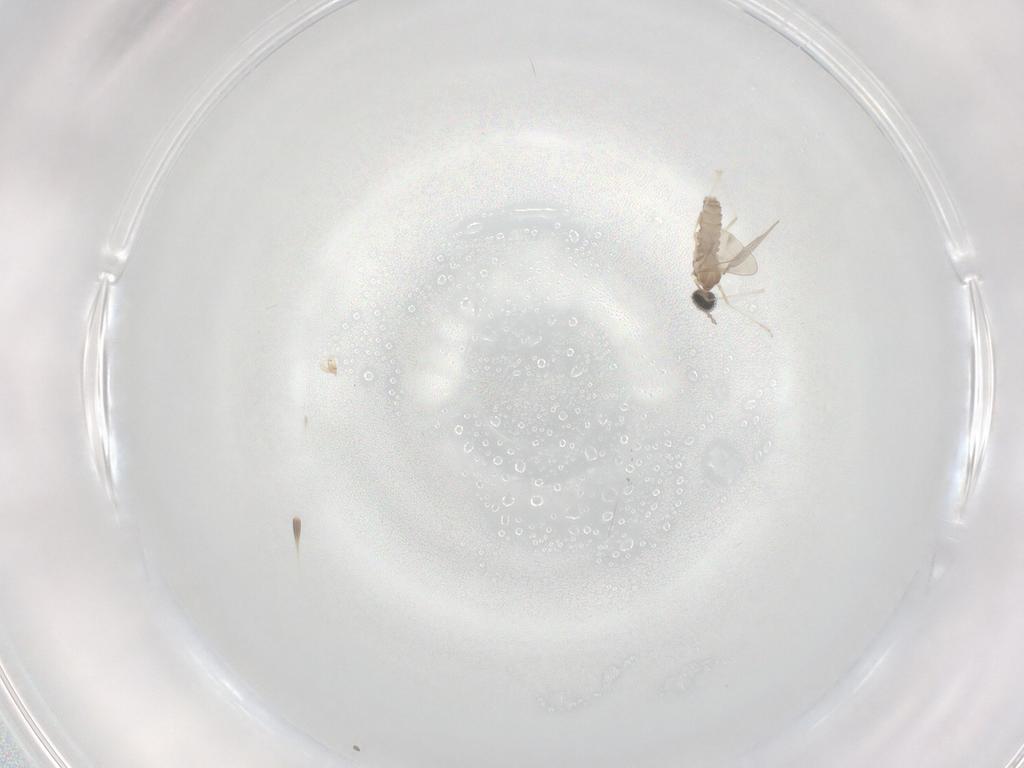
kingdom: Animalia
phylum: Arthropoda
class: Insecta
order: Diptera
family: Cecidomyiidae
